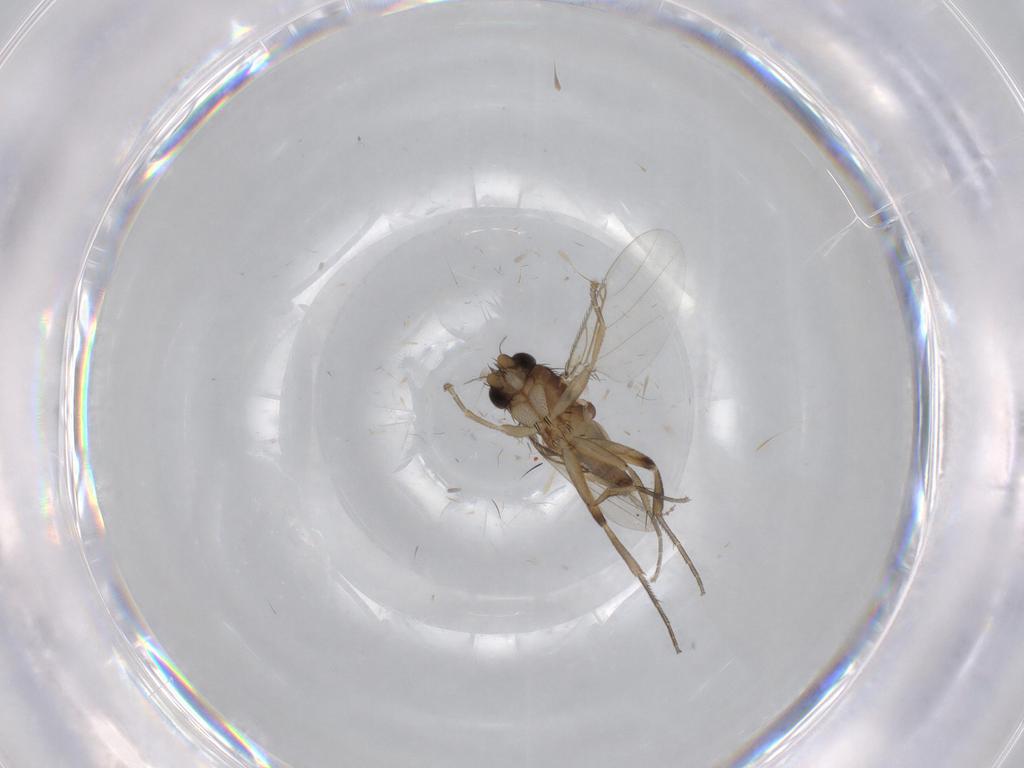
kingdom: Animalia
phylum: Arthropoda
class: Insecta
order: Diptera
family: Phoridae
